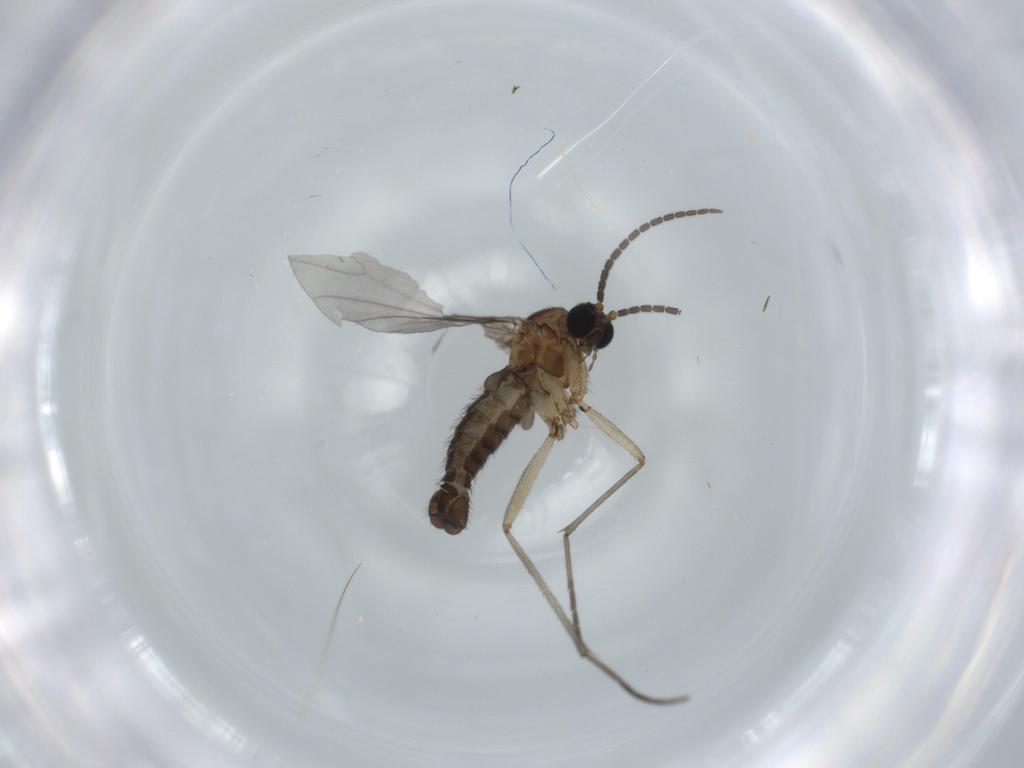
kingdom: Animalia
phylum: Arthropoda
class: Insecta
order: Diptera
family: Sciaridae
